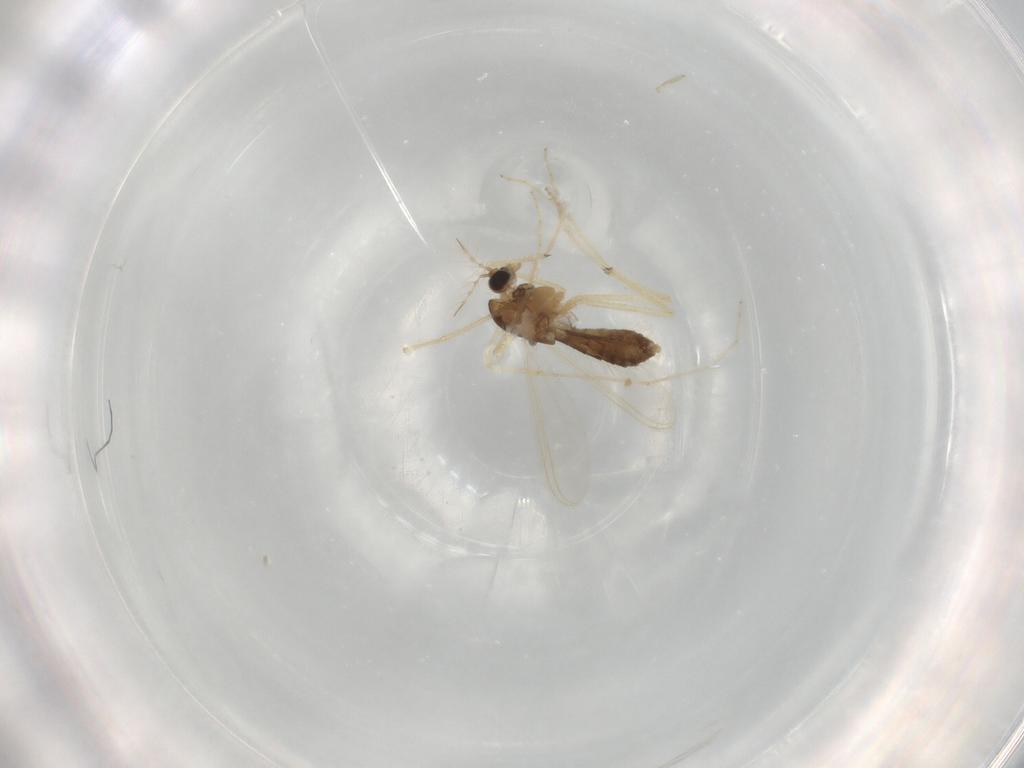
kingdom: Animalia
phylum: Arthropoda
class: Insecta
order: Diptera
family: Chironomidae
